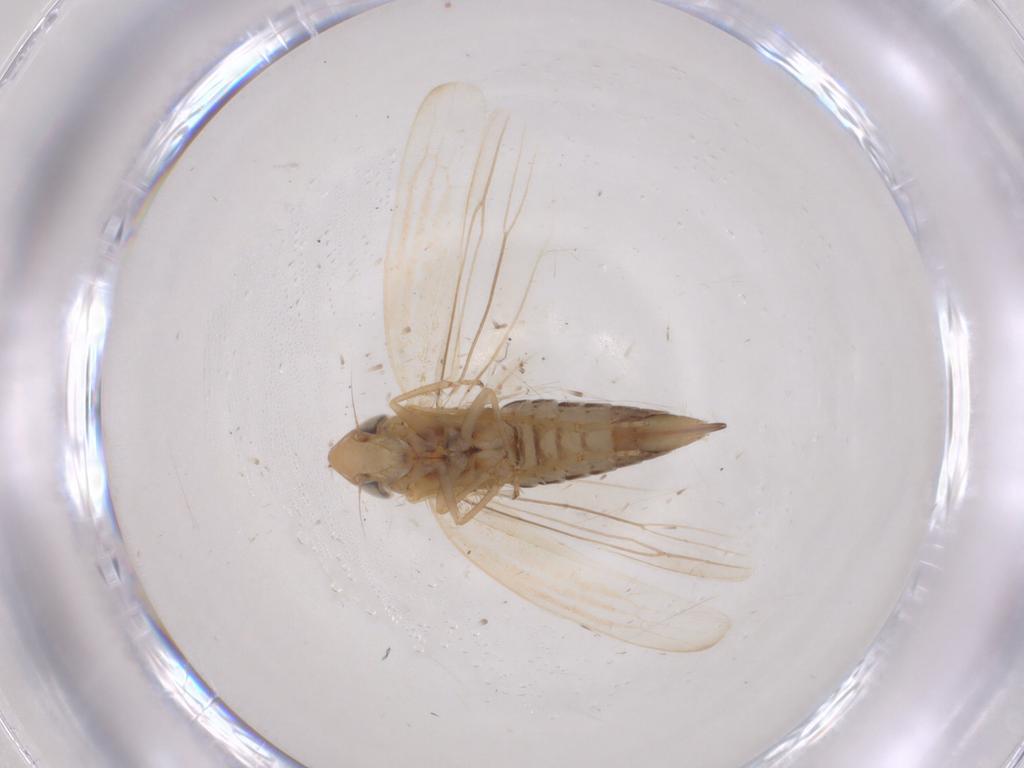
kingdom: Animalia
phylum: Arthropoda
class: Insecta
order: Hemiptera
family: Cicadellidae
